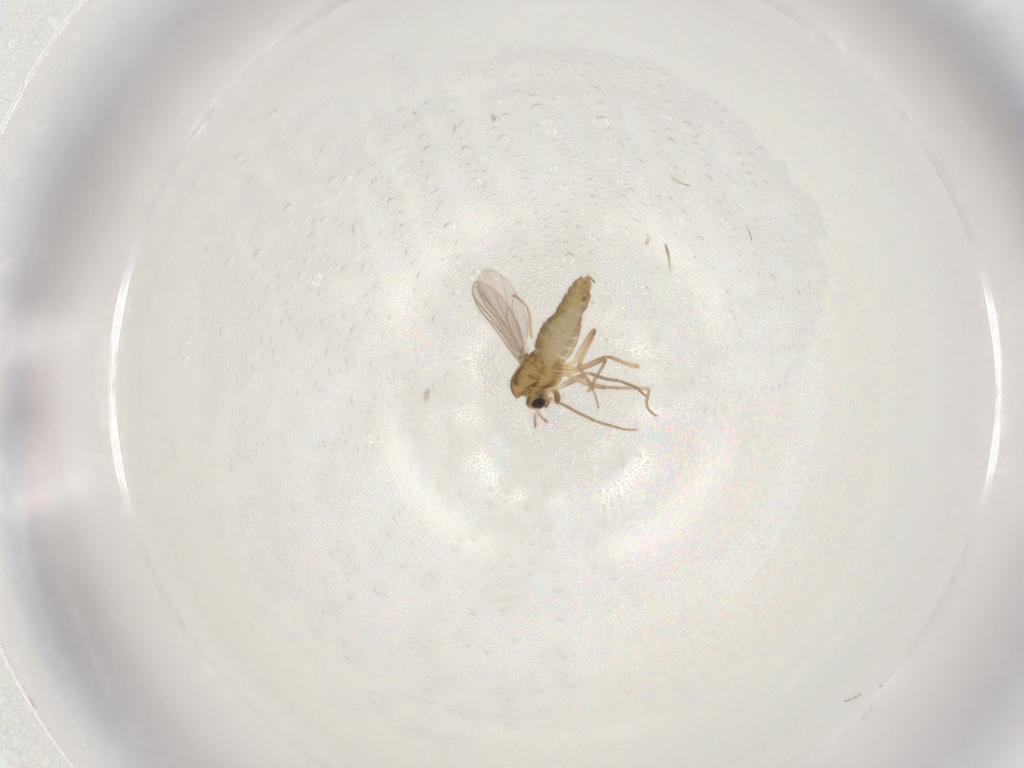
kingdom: Animalia
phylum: Arthropoda
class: Insecta
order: Diptera
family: Chironomidae
